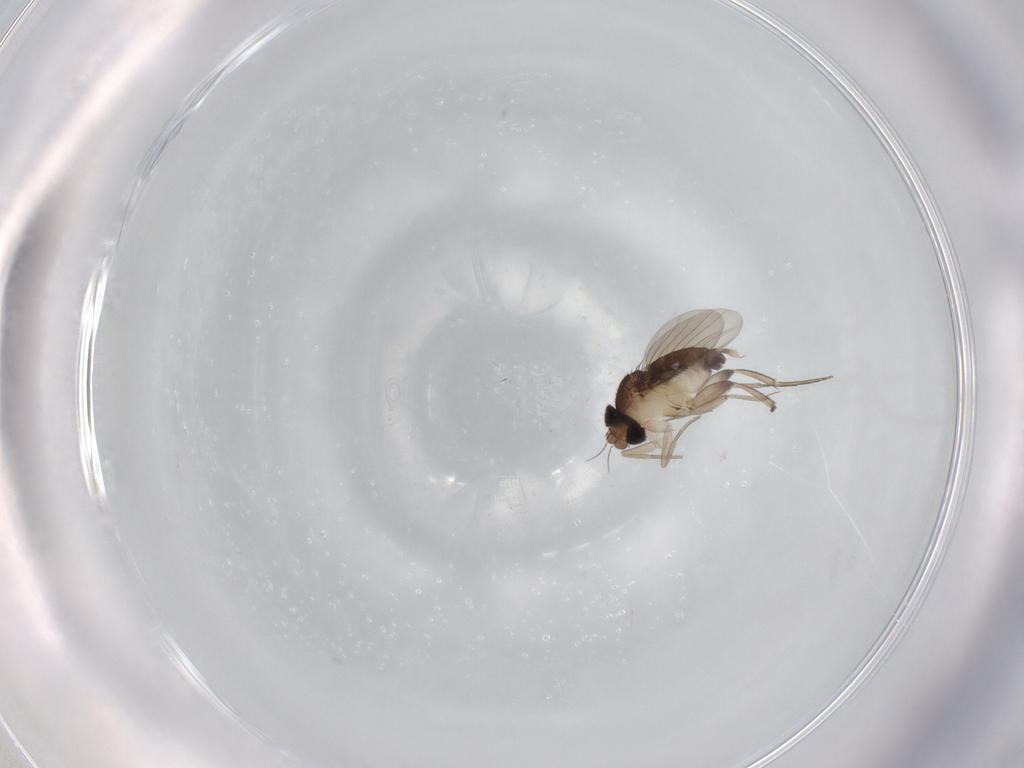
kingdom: Animalia
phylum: Arthropoda
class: Insecta
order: Diptera
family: Phoridae
